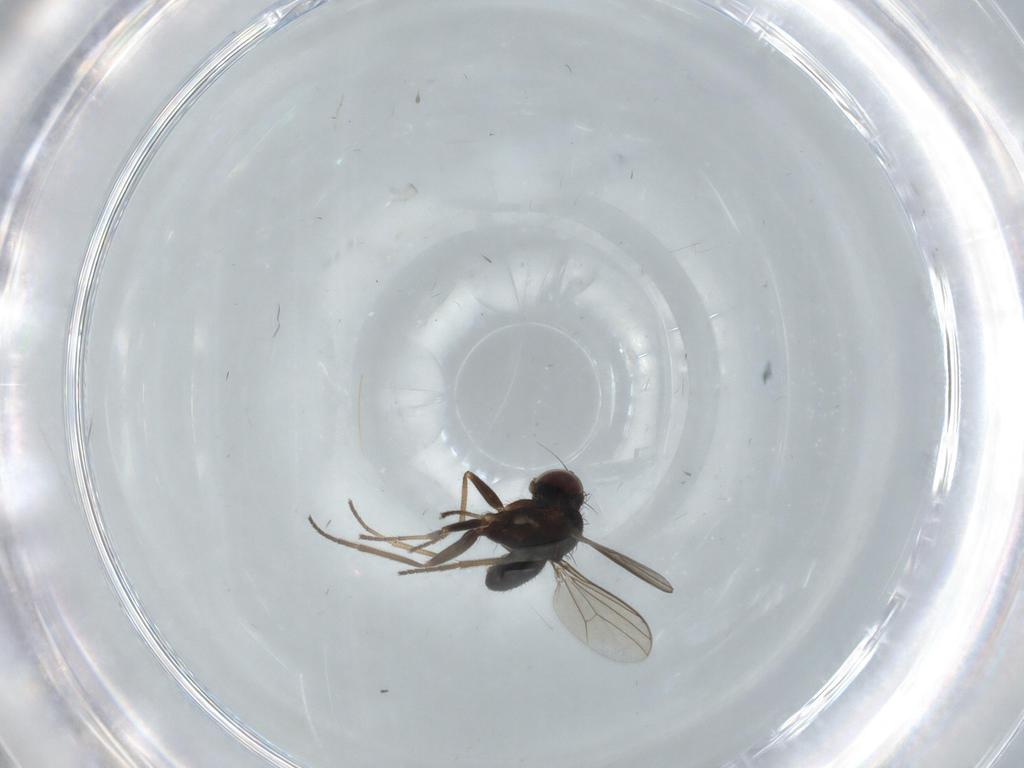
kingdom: Animalia
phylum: Arthropoda
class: Insecta
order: Diptera
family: Dolichopodidae
